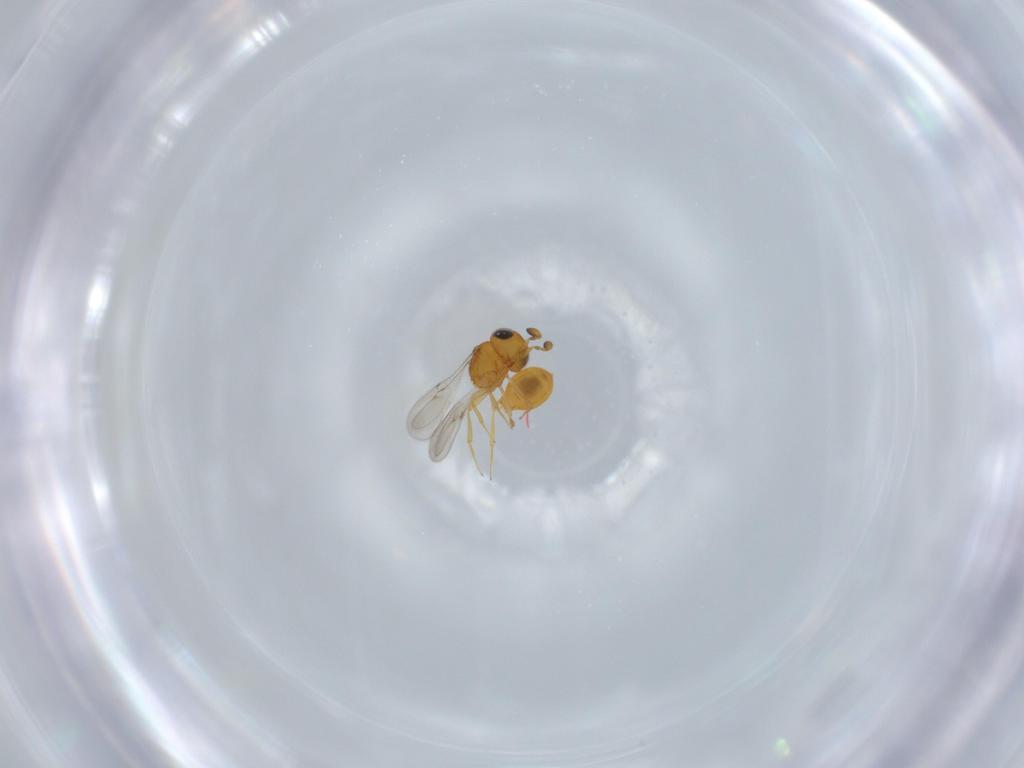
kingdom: Animalia
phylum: Arthropoda
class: Insecta
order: Hymenoptera
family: Scelionidae
